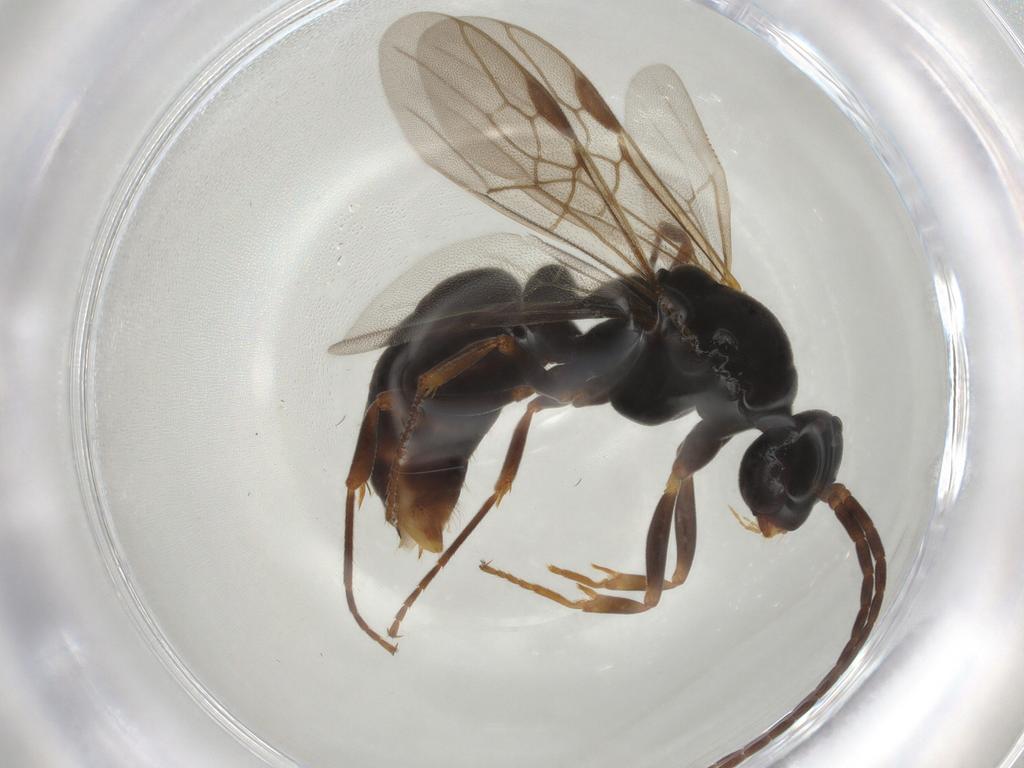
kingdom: Animalia
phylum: Arthropoda
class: Insecta
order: Hymenoptera
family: Formicidae
